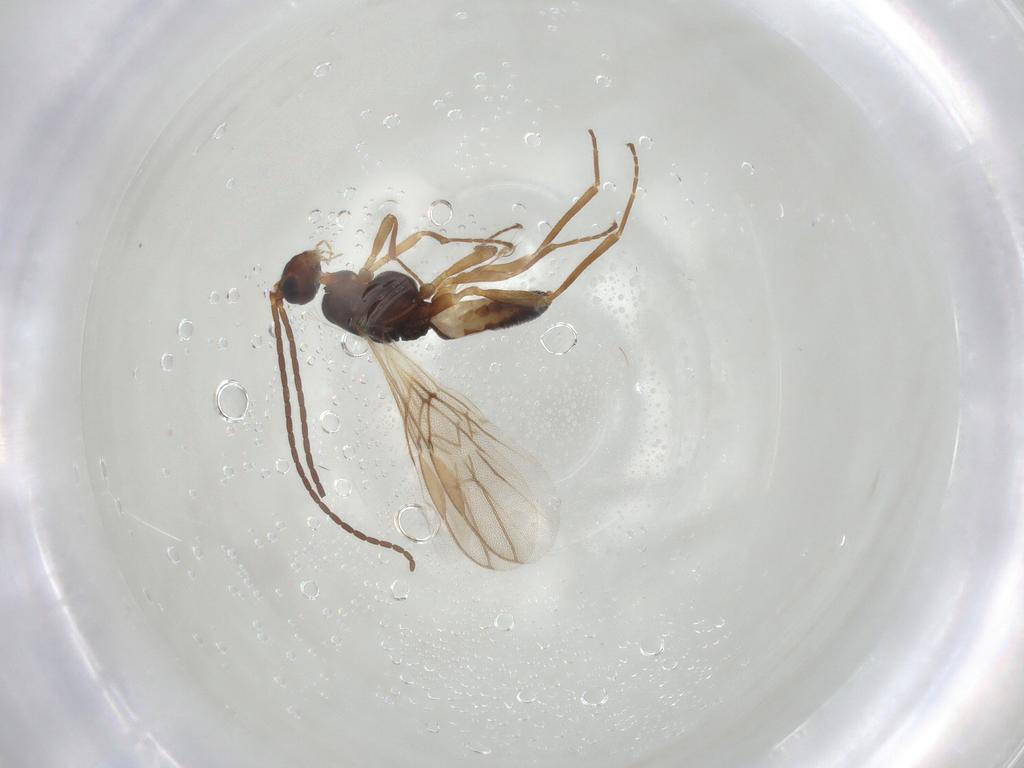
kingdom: Animalia
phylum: Arthropoda
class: Insecta
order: Hymenoptera
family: Braconidae
